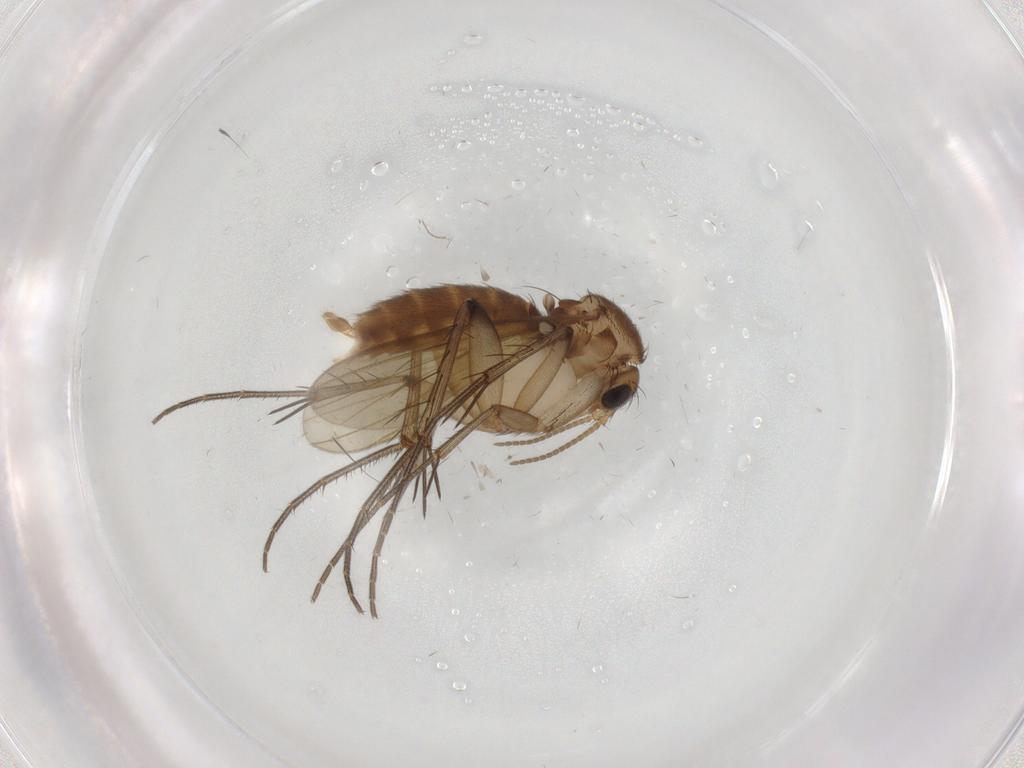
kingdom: Animalia
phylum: Arthropoda
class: Insecta
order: Diptera
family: Mycetophilidae
